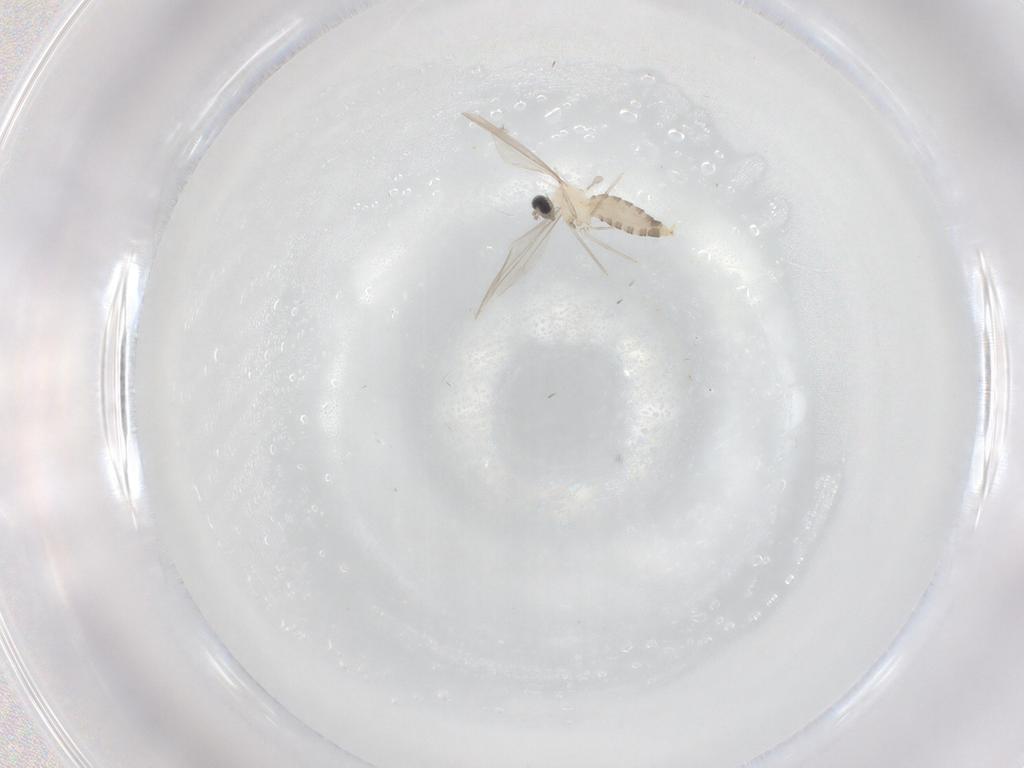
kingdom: Animalia
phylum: Arthropoda
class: Insecta
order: Diptera
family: Cecidomyiidae
